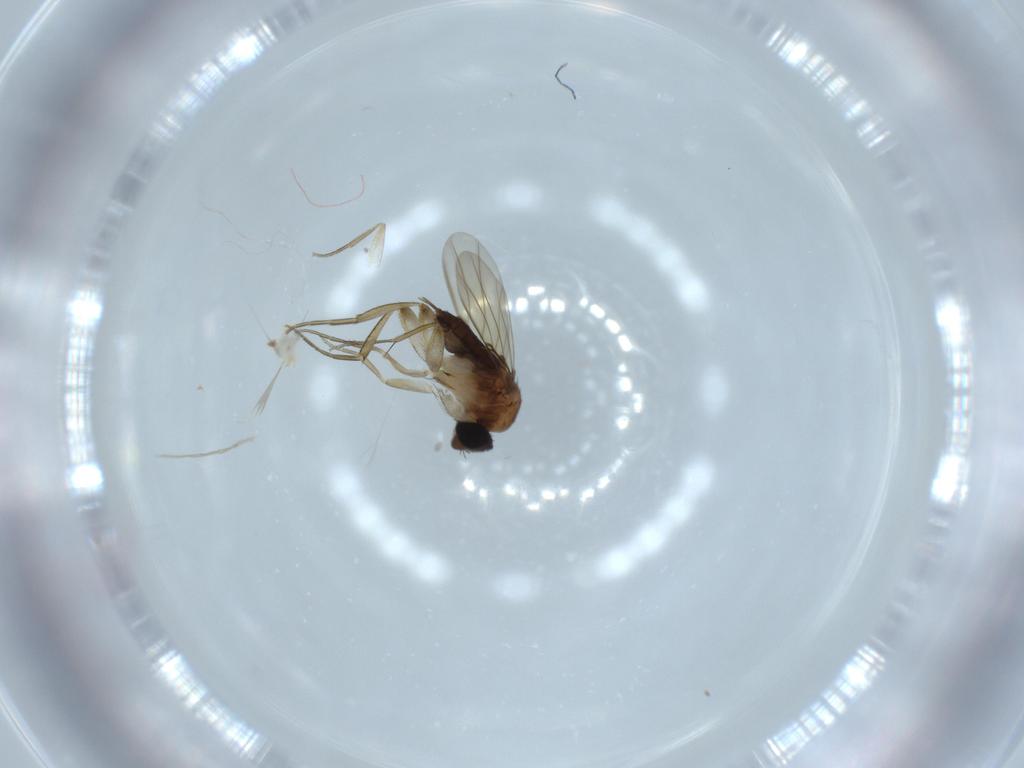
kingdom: Animalia
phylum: Arthropoda
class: Insecta
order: Diptera
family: Phoridae
